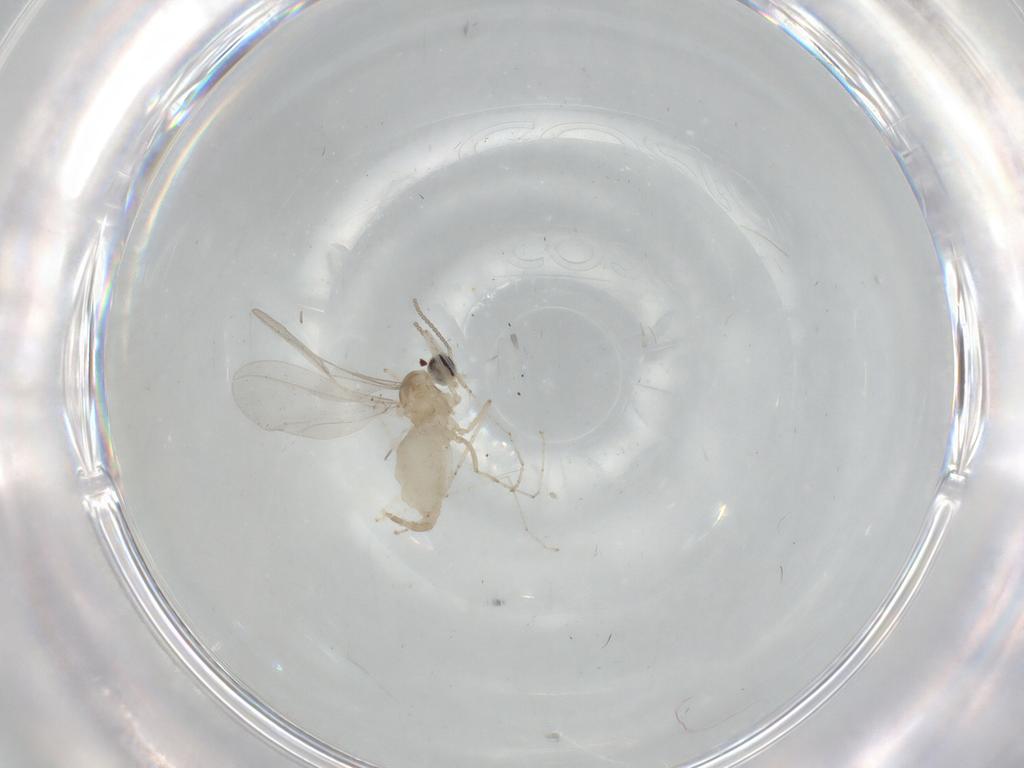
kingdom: Animalia
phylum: Arthropoda
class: Insecta
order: Diptera
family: Cecidomyiidae
